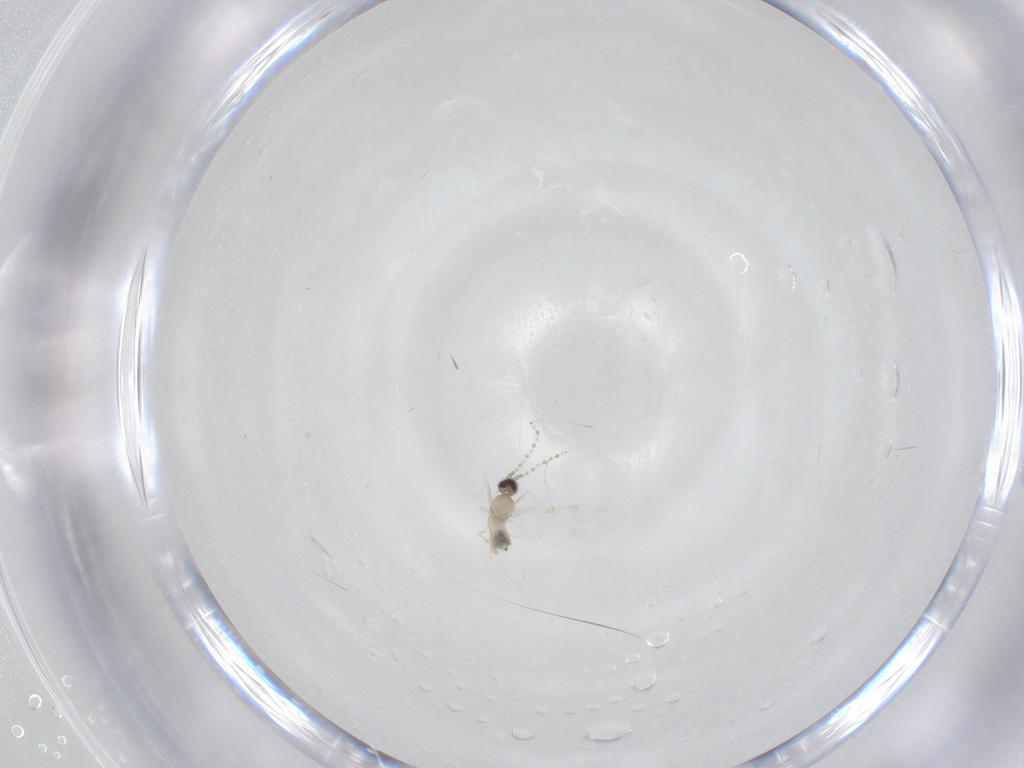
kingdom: Animalia
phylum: Arthropoda
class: Insecta
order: Diptera
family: Cecidomyiidae
